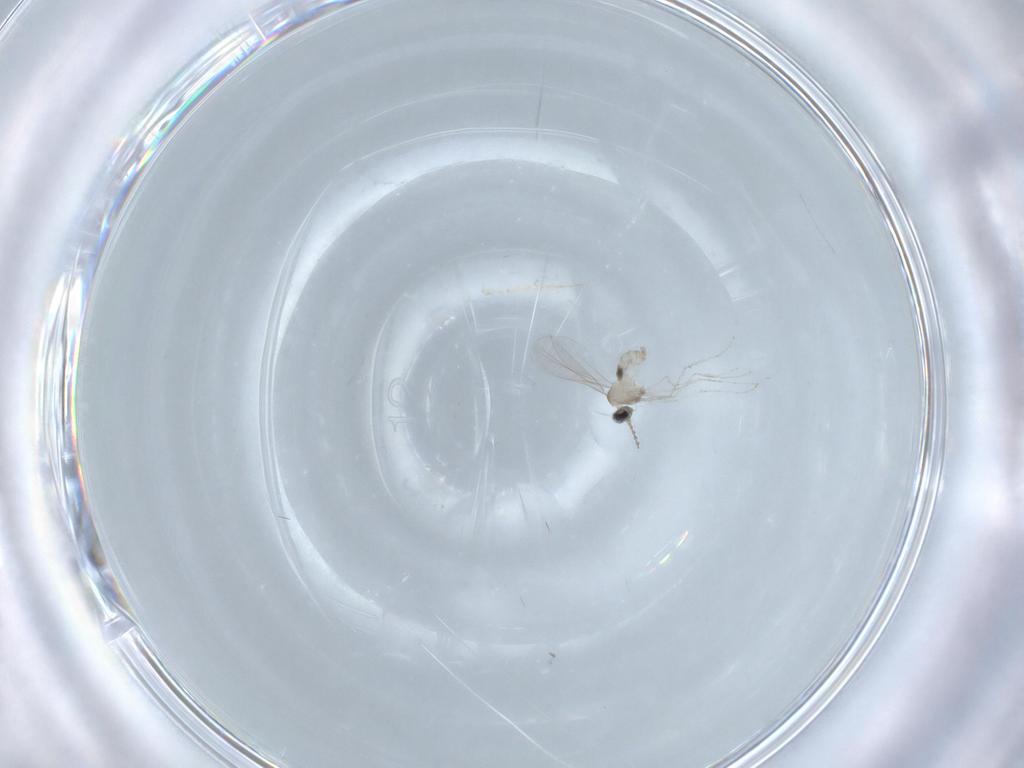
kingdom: Animalia
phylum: Arthropoda
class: Insecta
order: Diptera
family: Cecidomyiidae
